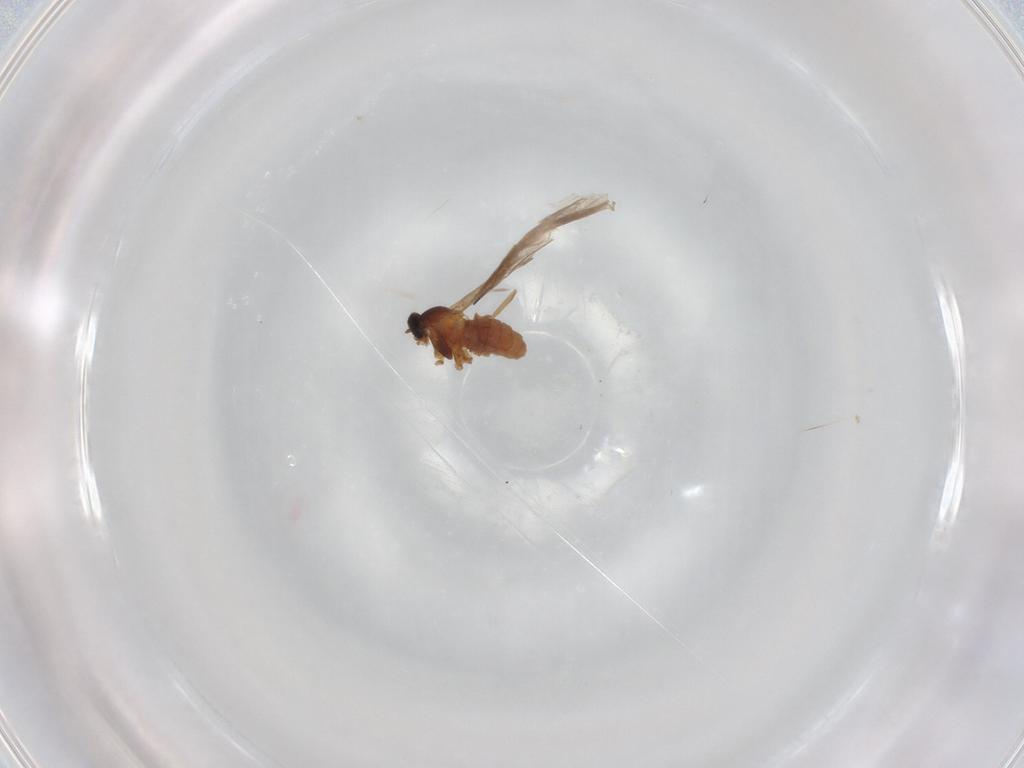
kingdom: Animalia
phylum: Arthropoda
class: Insecta
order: Diptera
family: Cecidomyiidae
